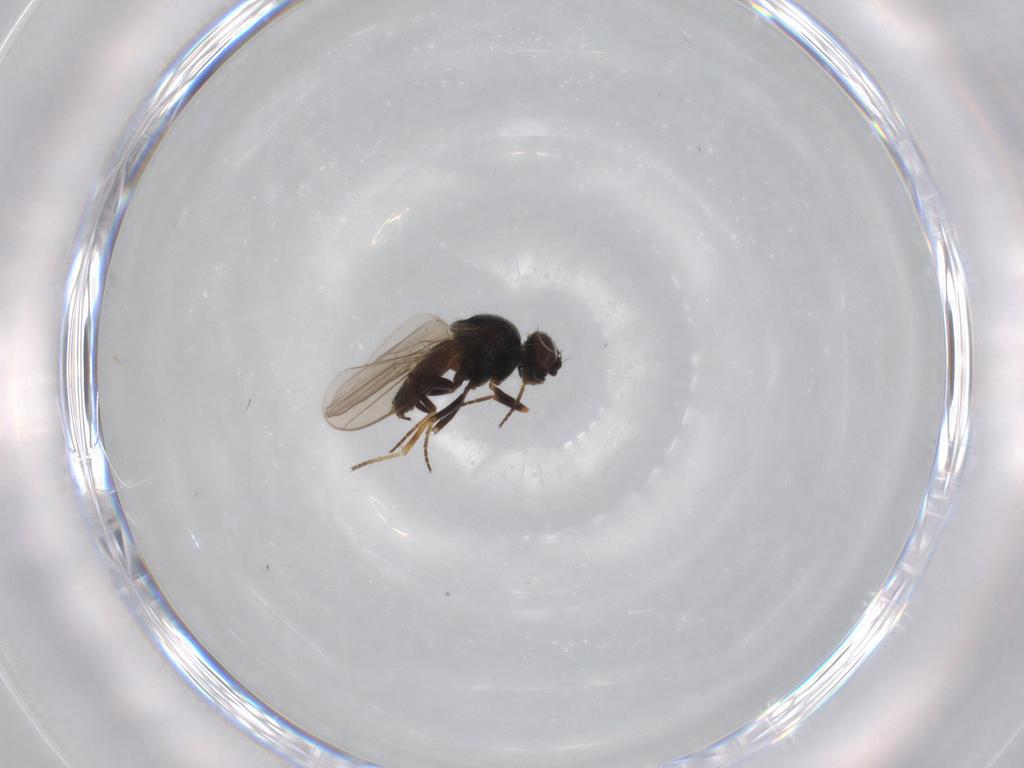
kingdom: Animalia
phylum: Arthropoda
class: Insecta
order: Diptera
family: Chloropidae
